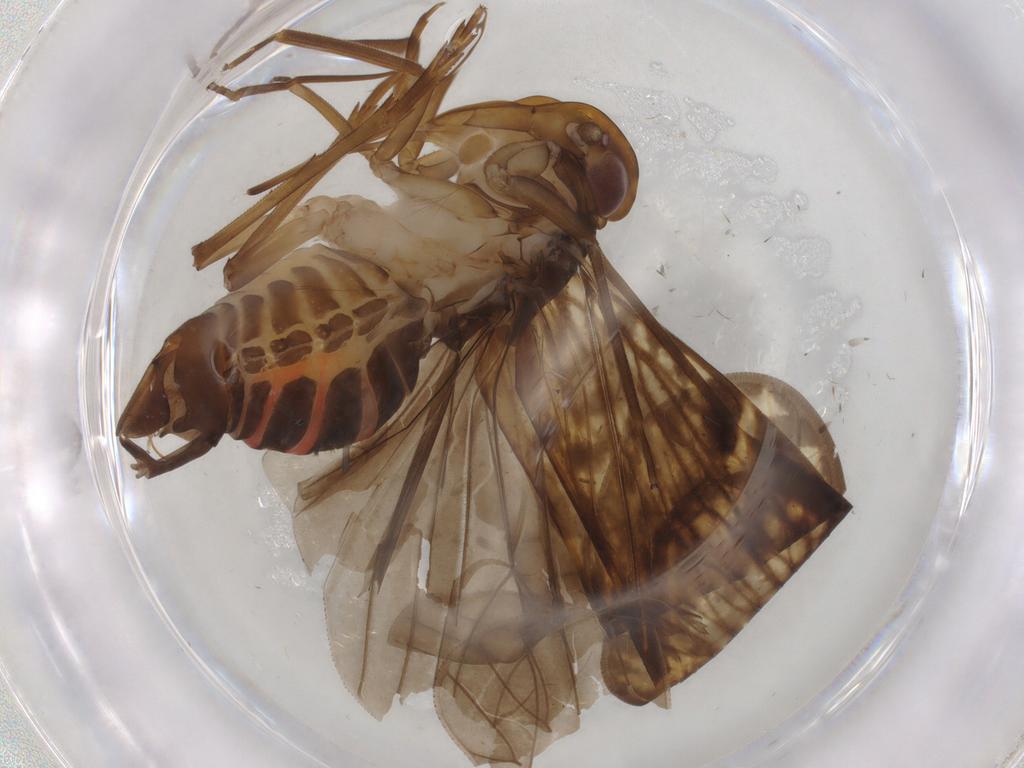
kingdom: Animalia
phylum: Arthropoda
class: Insecta
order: Hemiptera
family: Cicadellidae
